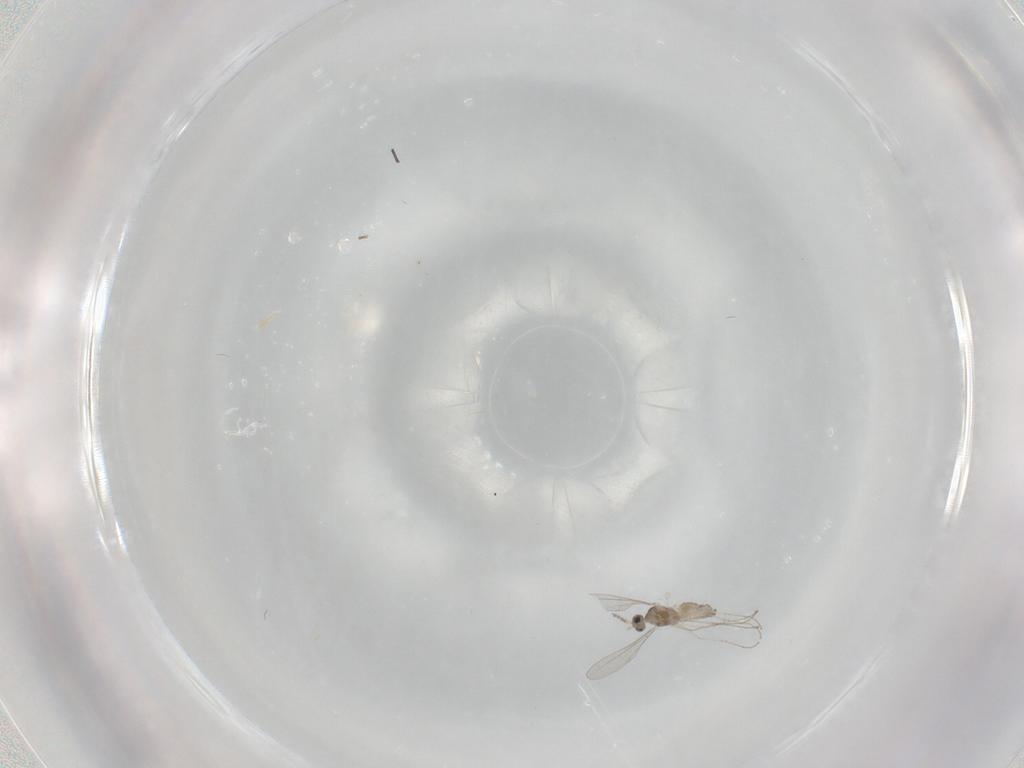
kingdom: Animalia
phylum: Arthropoda
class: Insecta
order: Diptera
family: Cecidomyiidae
